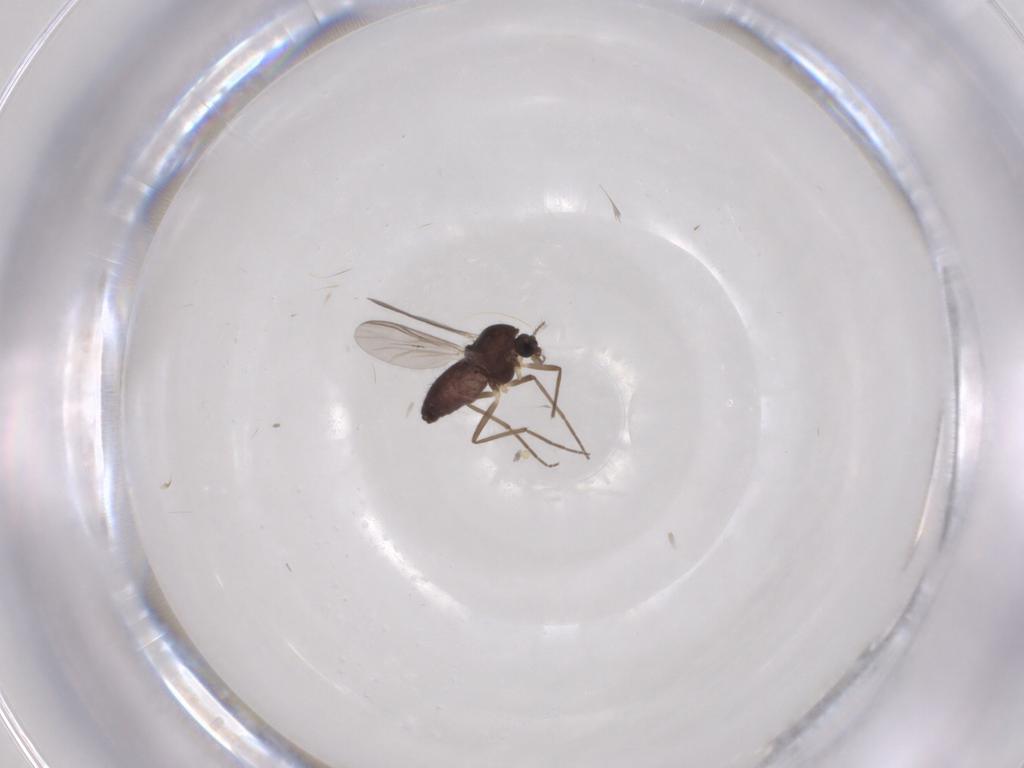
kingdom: Animalia
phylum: Arthropoda
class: Insecta
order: Diptera
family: Chironomidae
